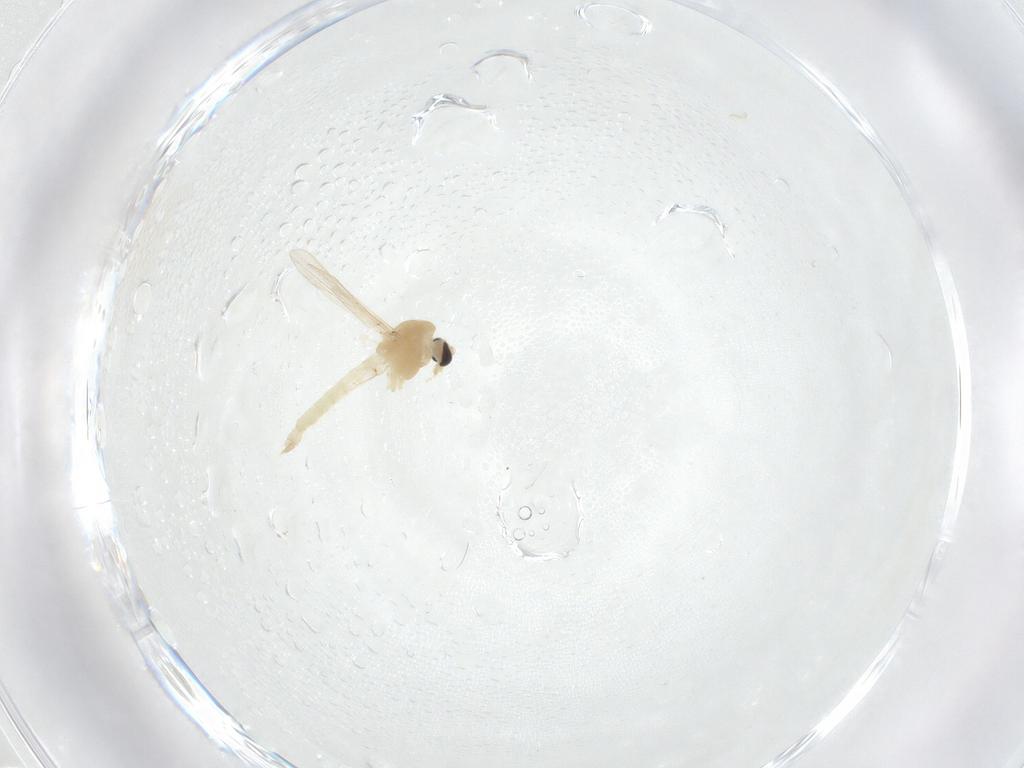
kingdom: Animalia
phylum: Arthropoda
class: Insecta
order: Diptera
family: Chironomidae
